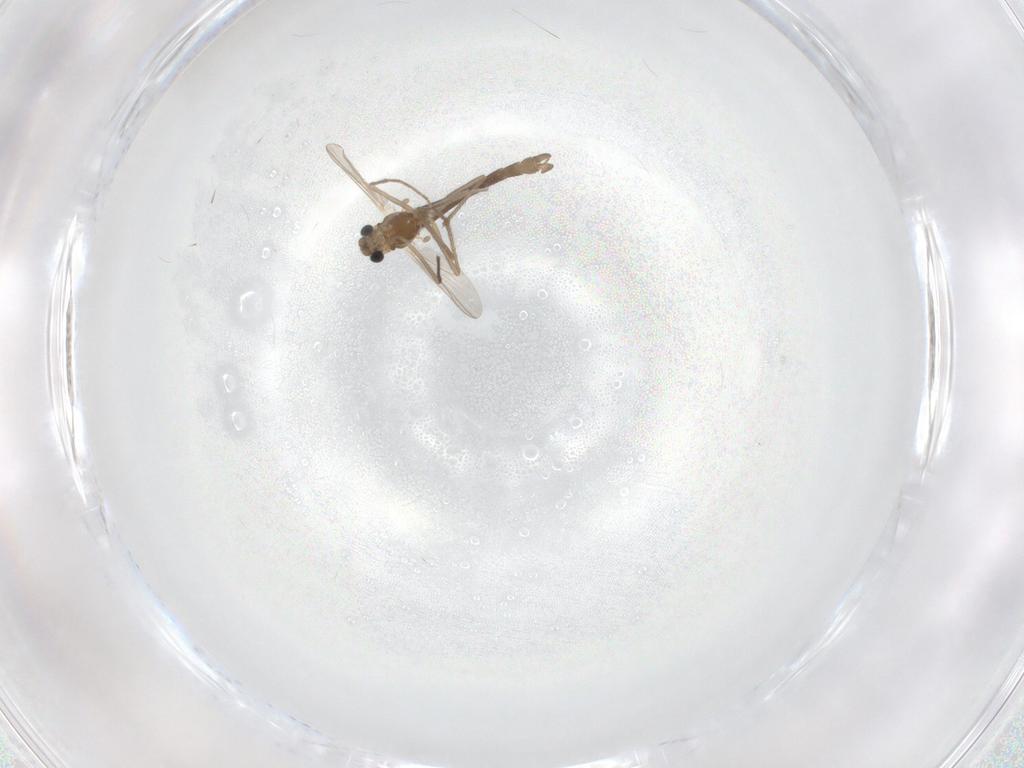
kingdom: Animalia
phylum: Arthropoda
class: Insecta
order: Diptera
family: Chironomidae
